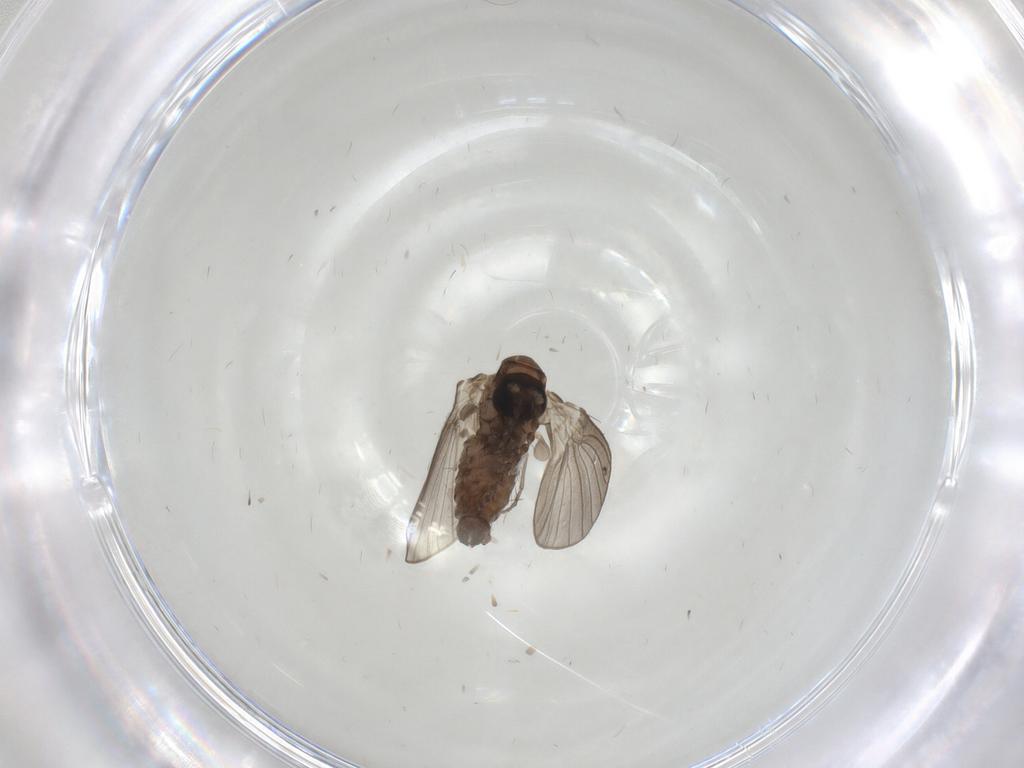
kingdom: Animalia
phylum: Arthropoda
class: Insecta
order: Diptera
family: Psychodidae
